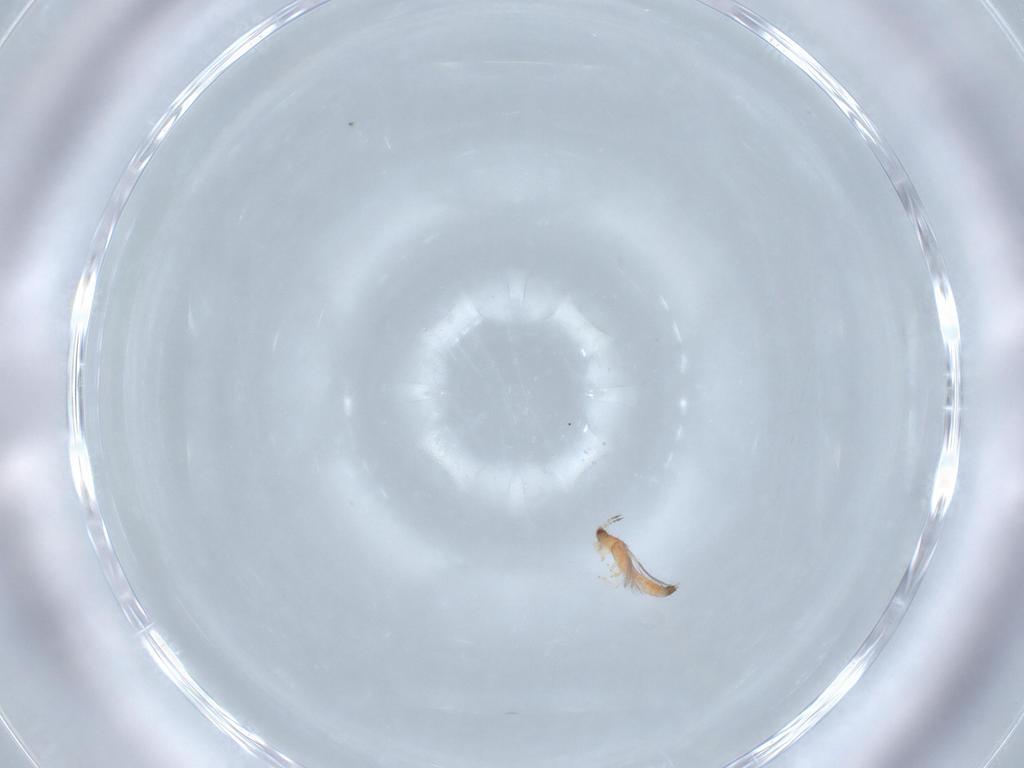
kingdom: Animalia
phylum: Arthropoda
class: Insecta
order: Thysanoptera
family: Thripidae
